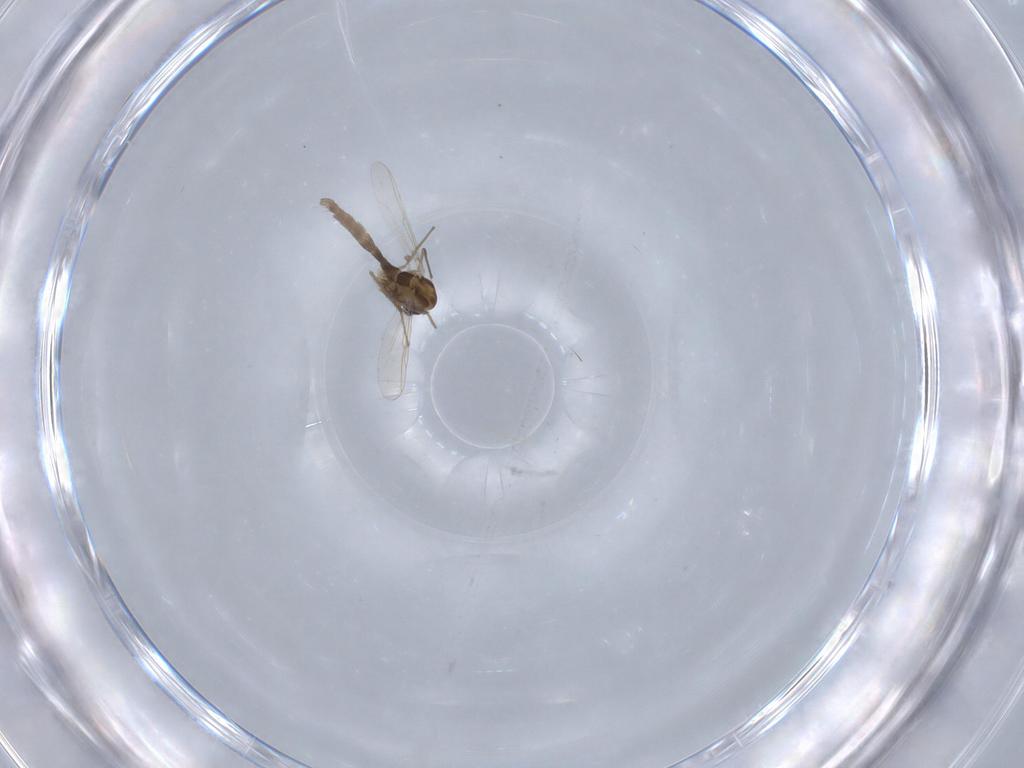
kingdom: Animalia
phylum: Arthropoda
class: Insecta
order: Diptera
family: Chironomidae
